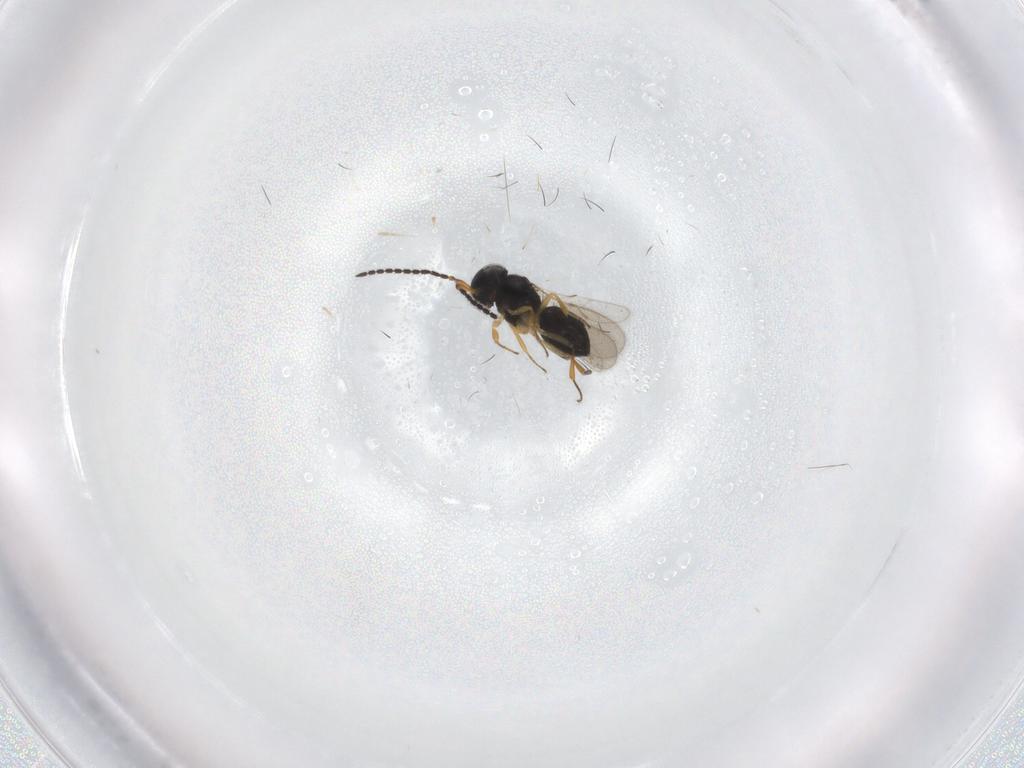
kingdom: Animalia
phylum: Arthropoda
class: Insecta
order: Hymenoptera
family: Scelionidae
